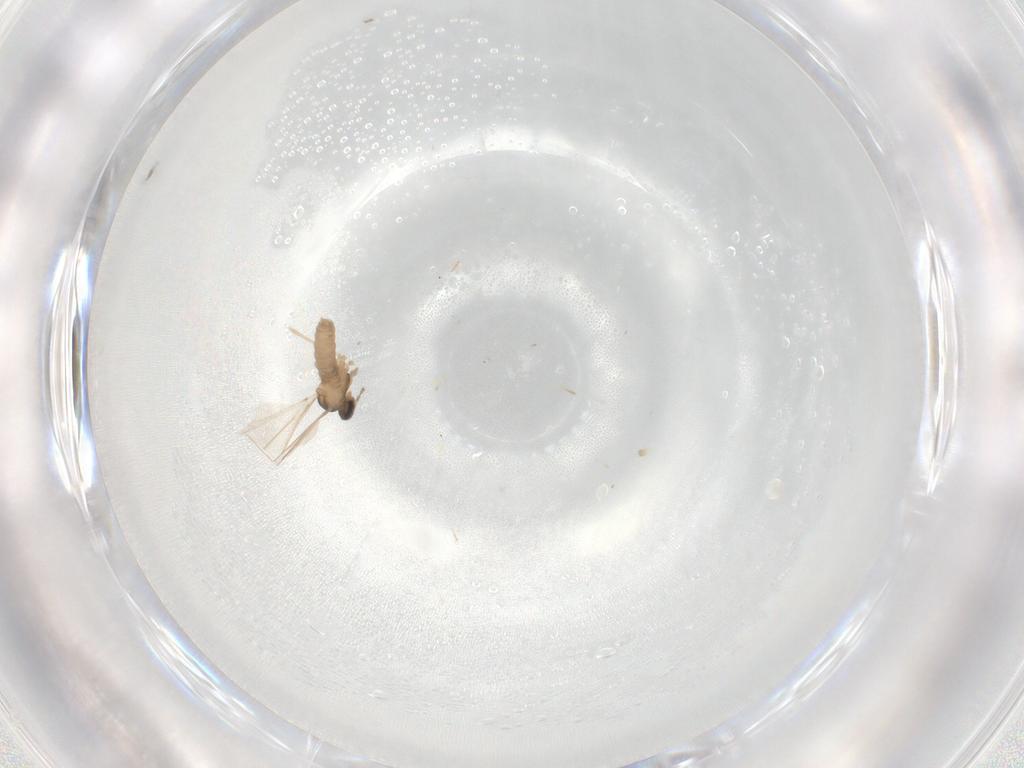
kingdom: Animalia
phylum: Arthropoda
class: Insecta
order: Diptera
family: Cecidomyiidae
